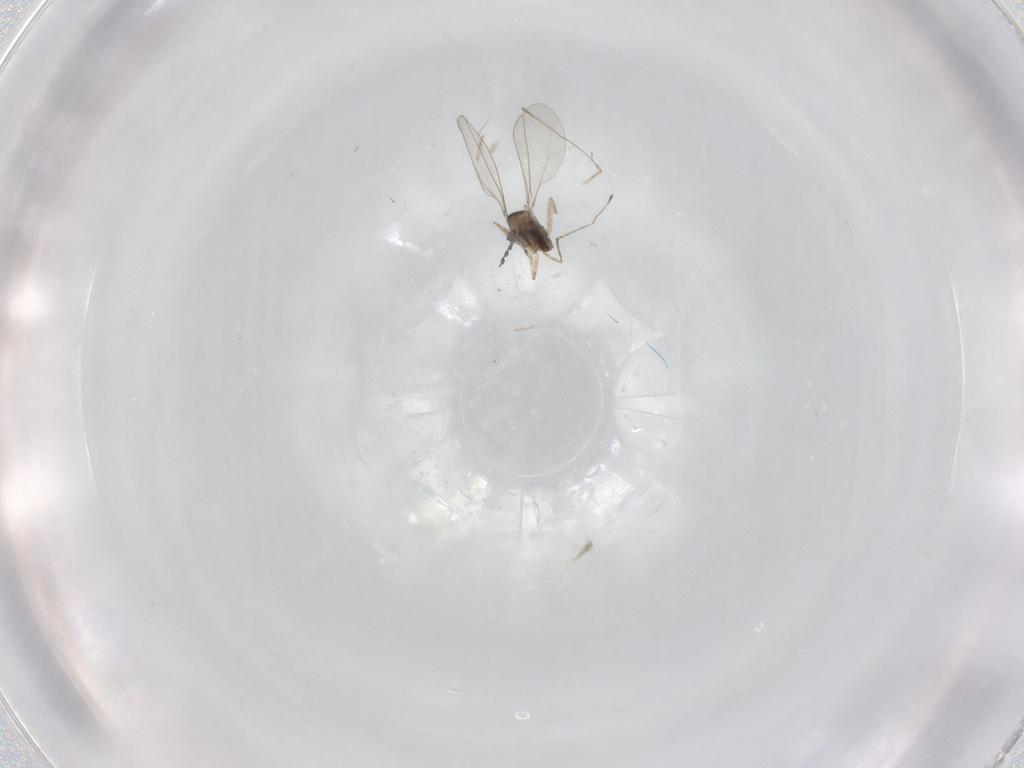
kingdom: Animalia
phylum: Arthropoda
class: Insecta
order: Diptera
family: Cecidomyiidae
